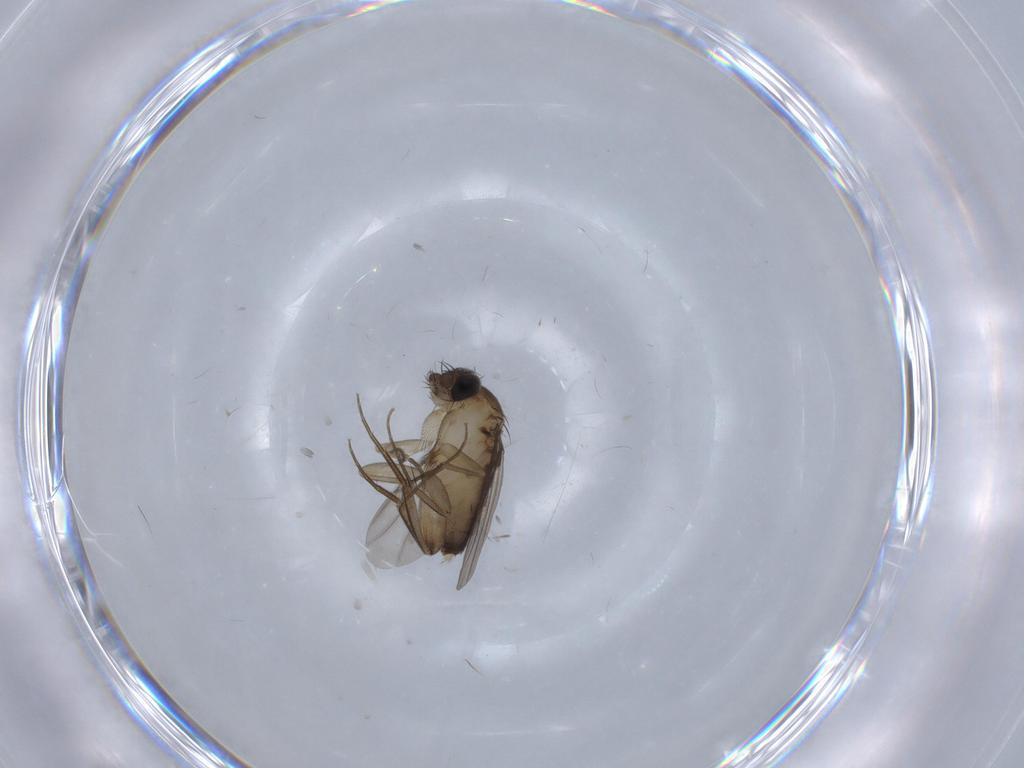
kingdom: Animalia
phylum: Arthropoda
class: Insecta
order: Diptera
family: Phoridae
